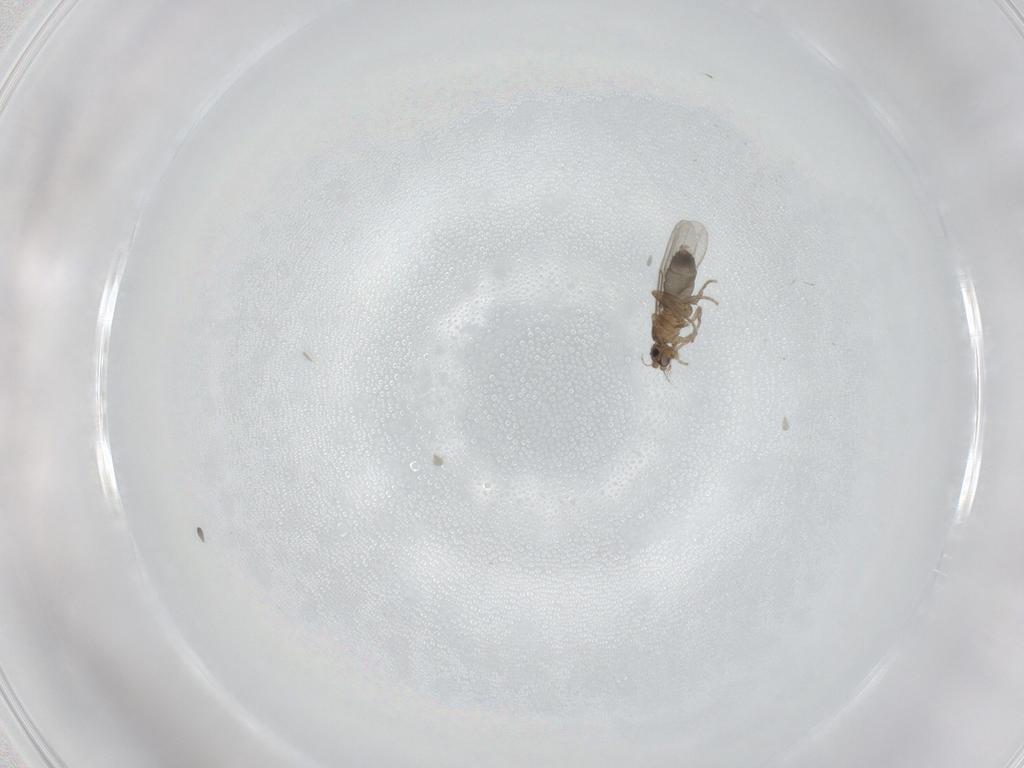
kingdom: Animalia
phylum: Arthropoda
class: Insecta
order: Diptera
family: Phoridae
